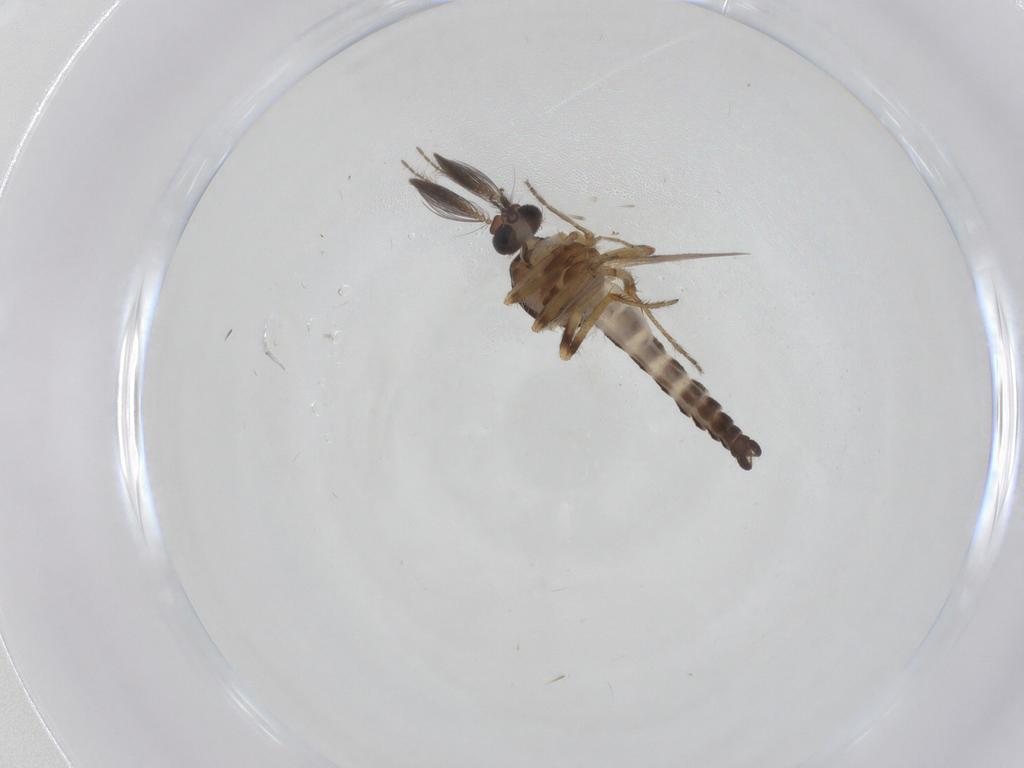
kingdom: Animalia
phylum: Arthropoda
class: Insecta
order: Diptera
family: Ceratopogonidae
